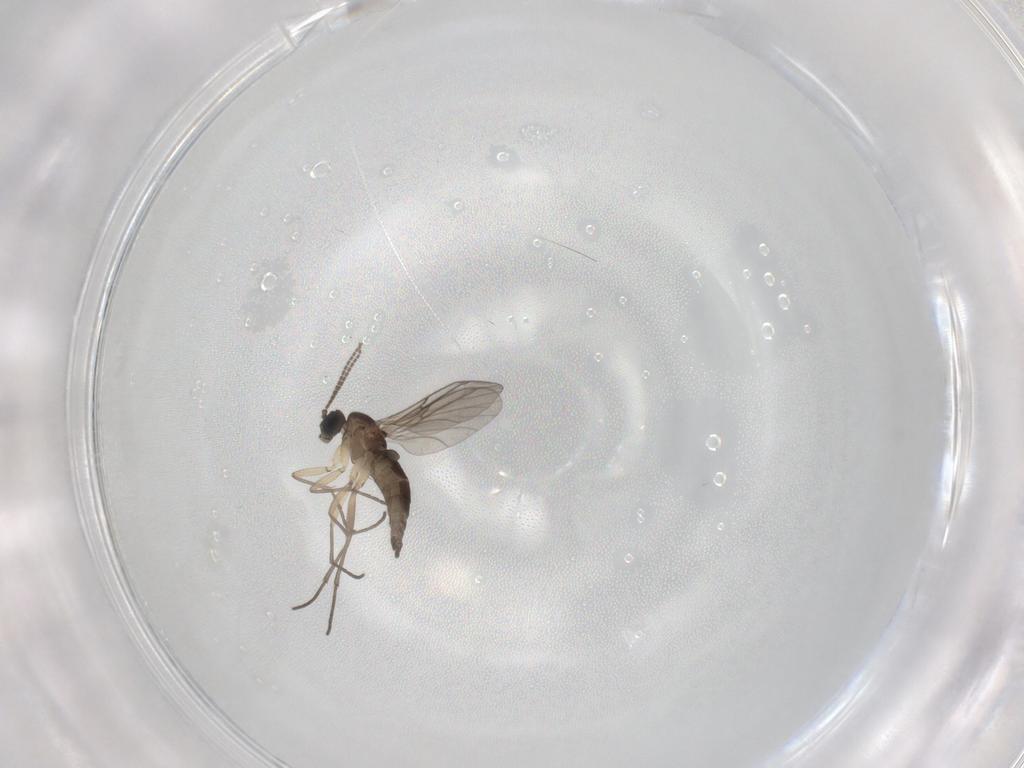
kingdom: Animalia
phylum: Arthropoda
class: Insecta
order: Diptera
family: Sciaridae
